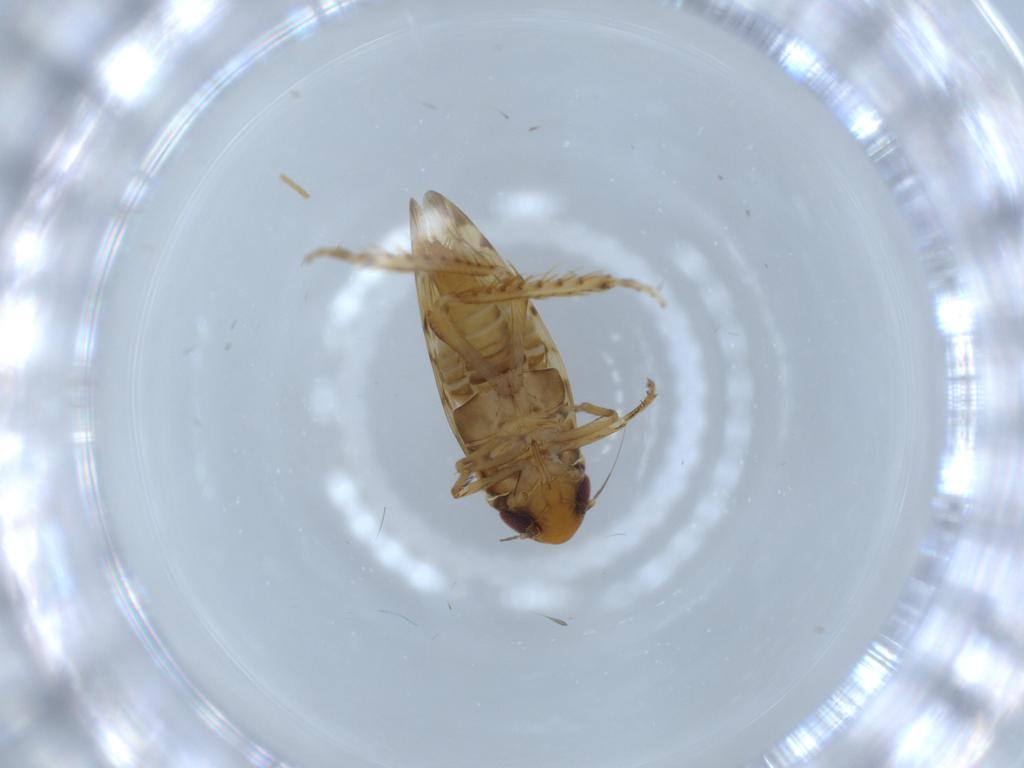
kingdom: Animalia
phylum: Arthropoda
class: Insecta
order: Hemiptera
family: Cicadellidae
